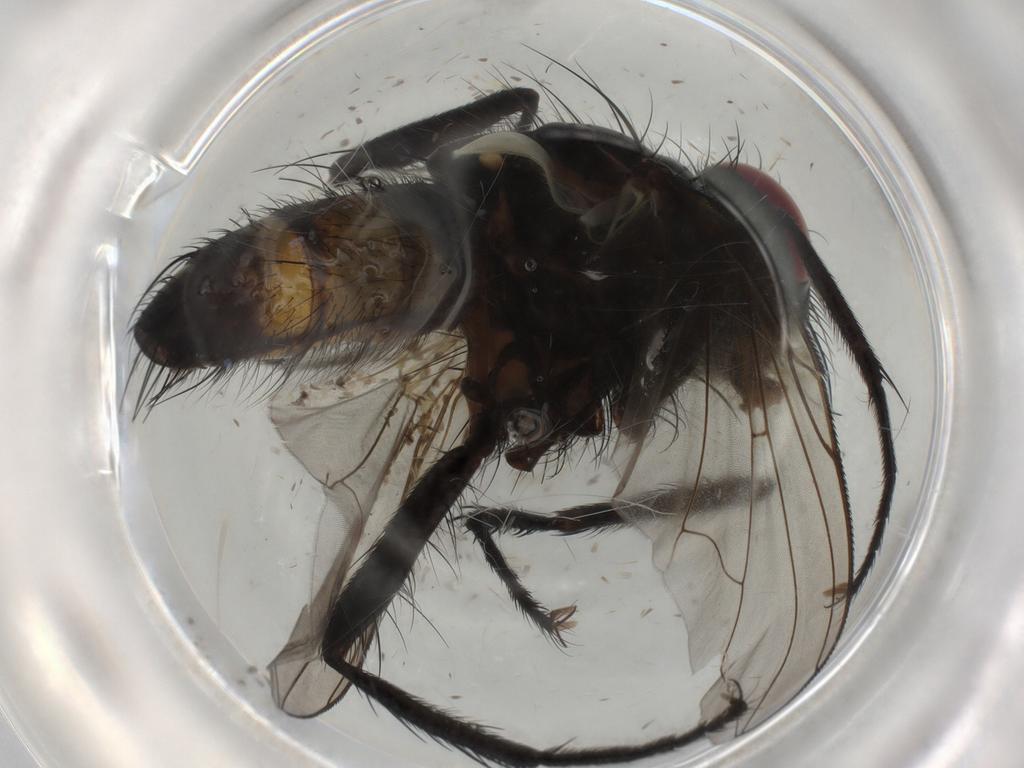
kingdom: Animalia
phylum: Arthropoda
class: Insecta
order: Diptera
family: Tachinidae
